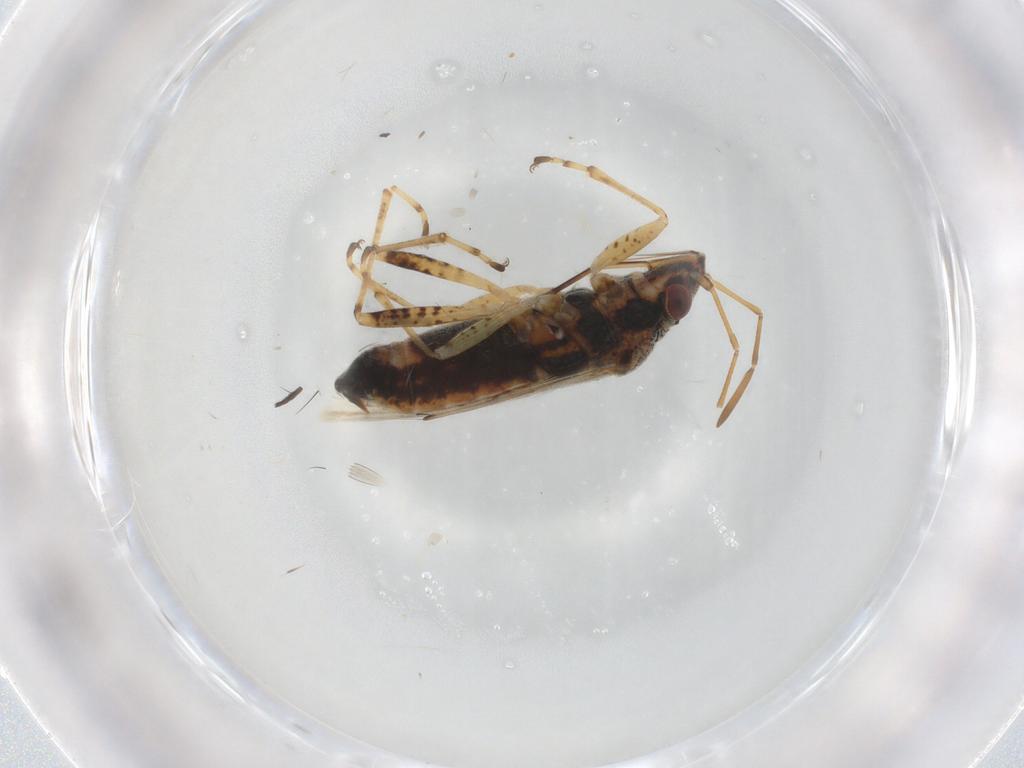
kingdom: Animalia
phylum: Arthropoda
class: Insecta
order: Hemiptera
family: Lygaeidae
